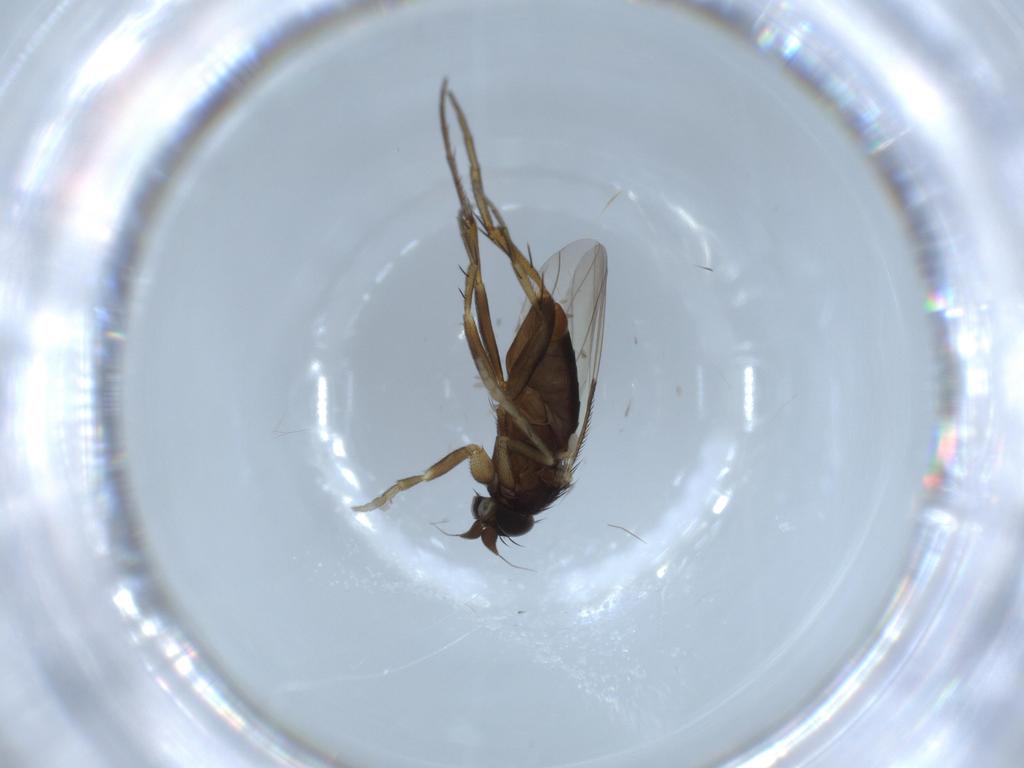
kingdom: Animalia
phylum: Arthropoda
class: Insecta
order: Diptera
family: Phoridae
